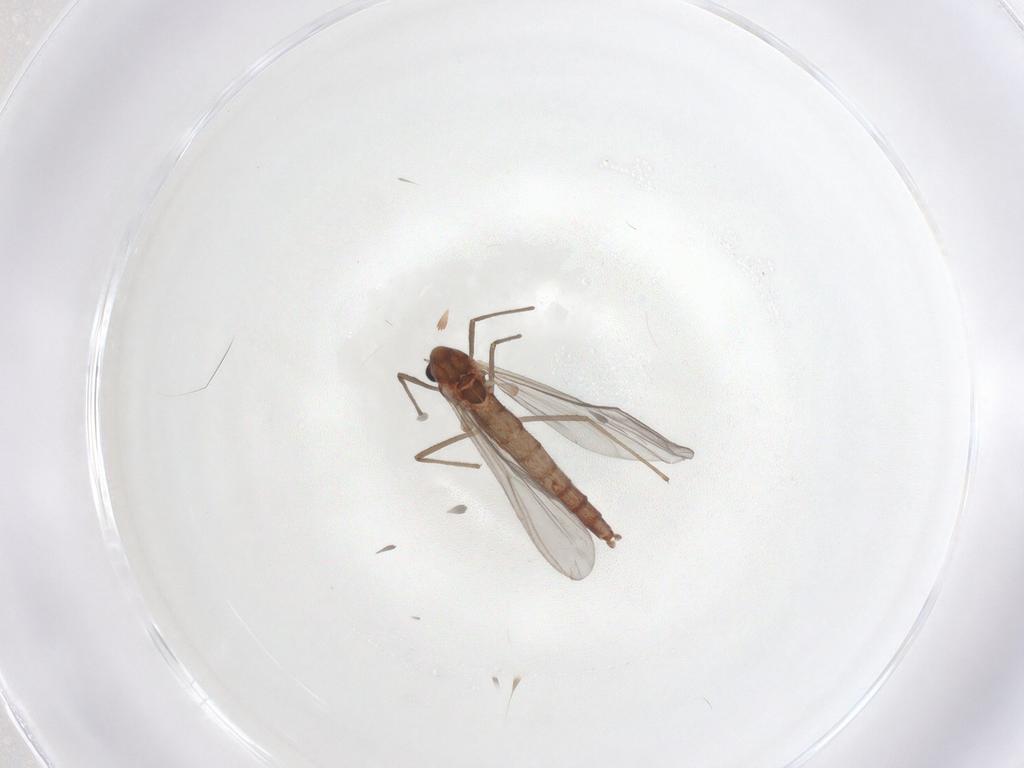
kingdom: Animalia
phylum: Arthropoda
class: Insecta
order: Diptera
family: Chironomidae
